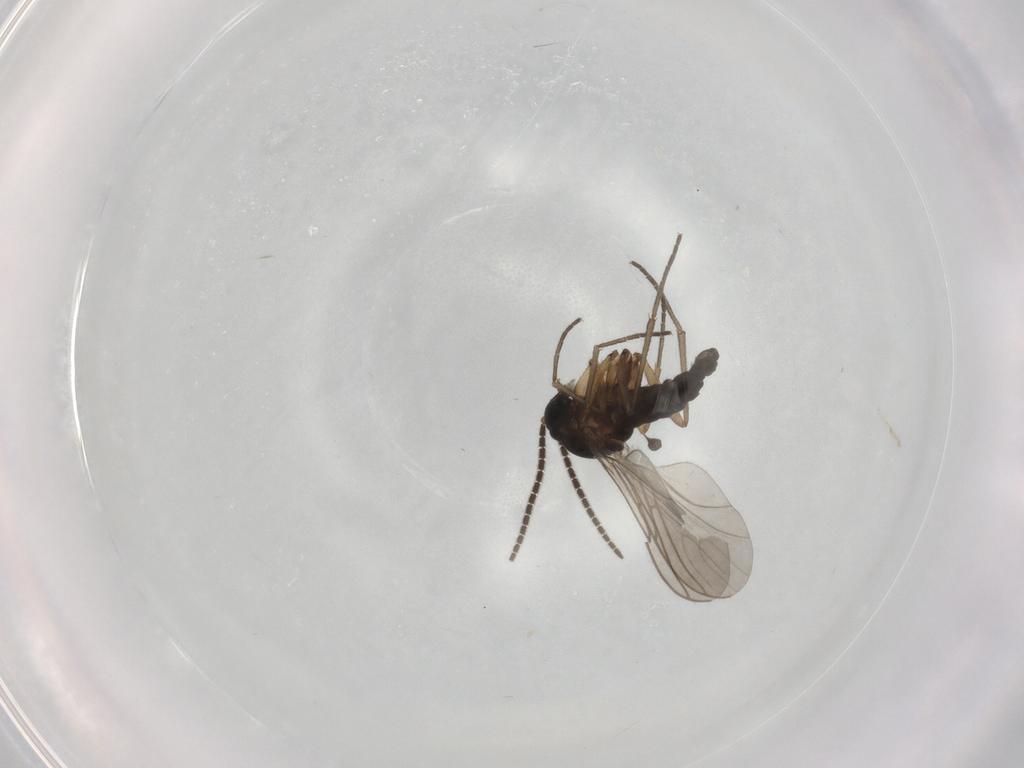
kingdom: Animalia
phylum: Arthropoda
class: Insecta
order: Diptera
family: Sciaridae
